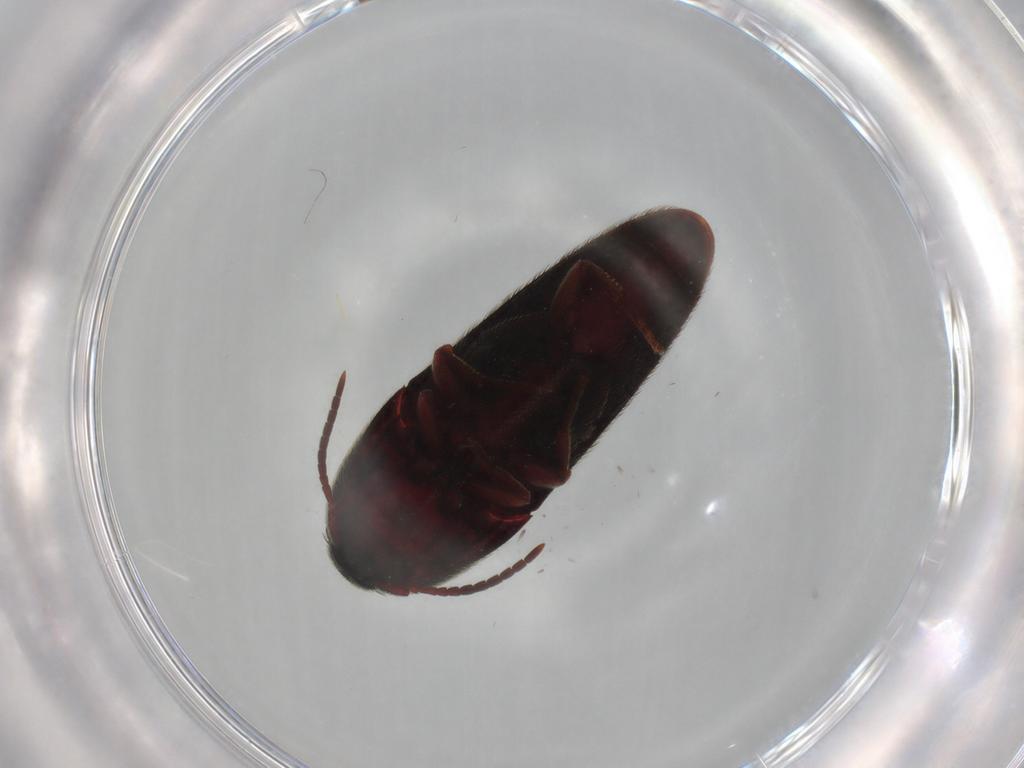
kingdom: Animalia
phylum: Arthropoda
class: Insecta
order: Coleoptera
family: Eucnemidae
